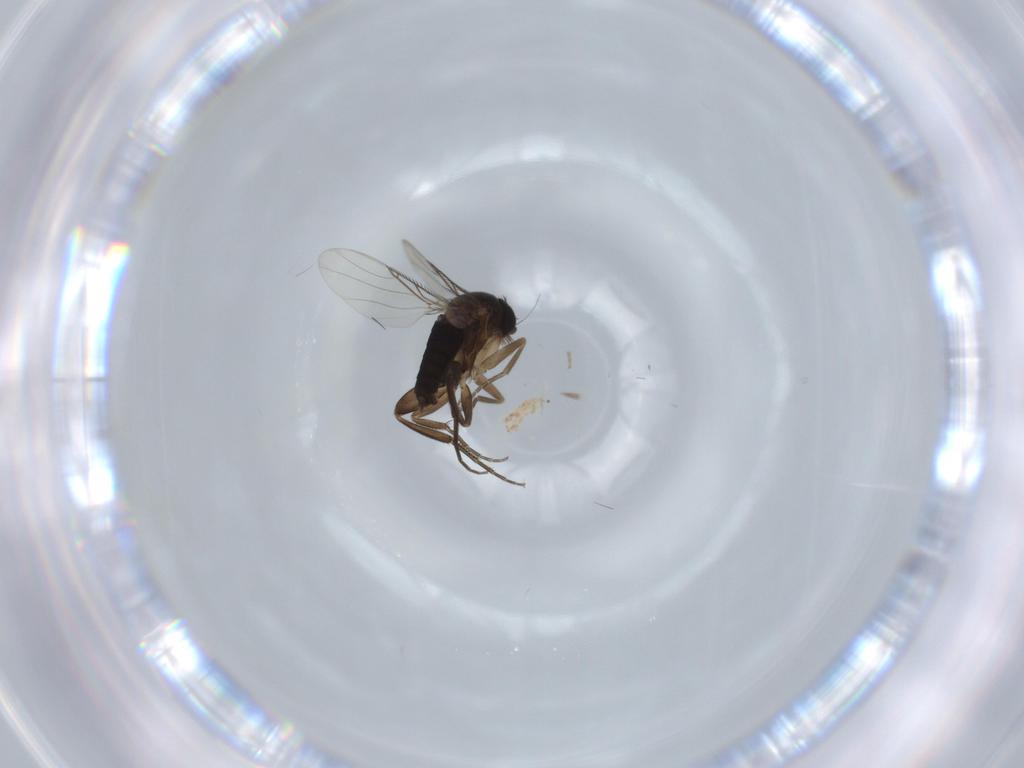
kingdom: Animalia
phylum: Arthropoda
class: Insecta
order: Diptera
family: Phoridae
